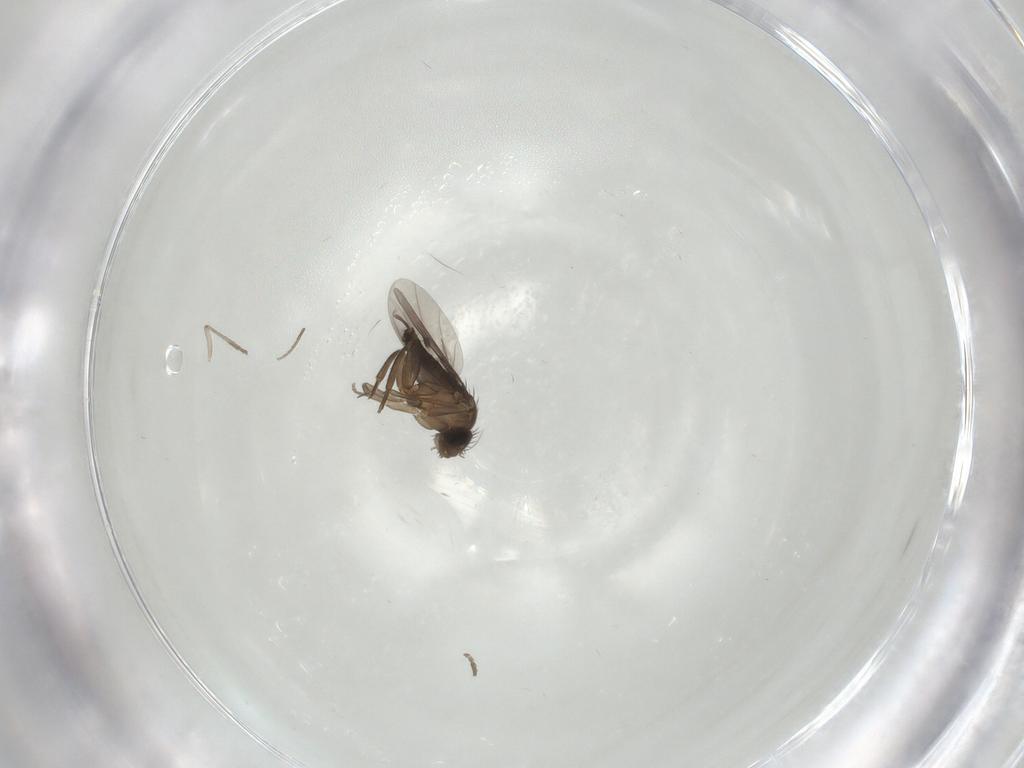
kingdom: Animalia
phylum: Arthropoda
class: Insecta
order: Diptera
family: Phoridae
